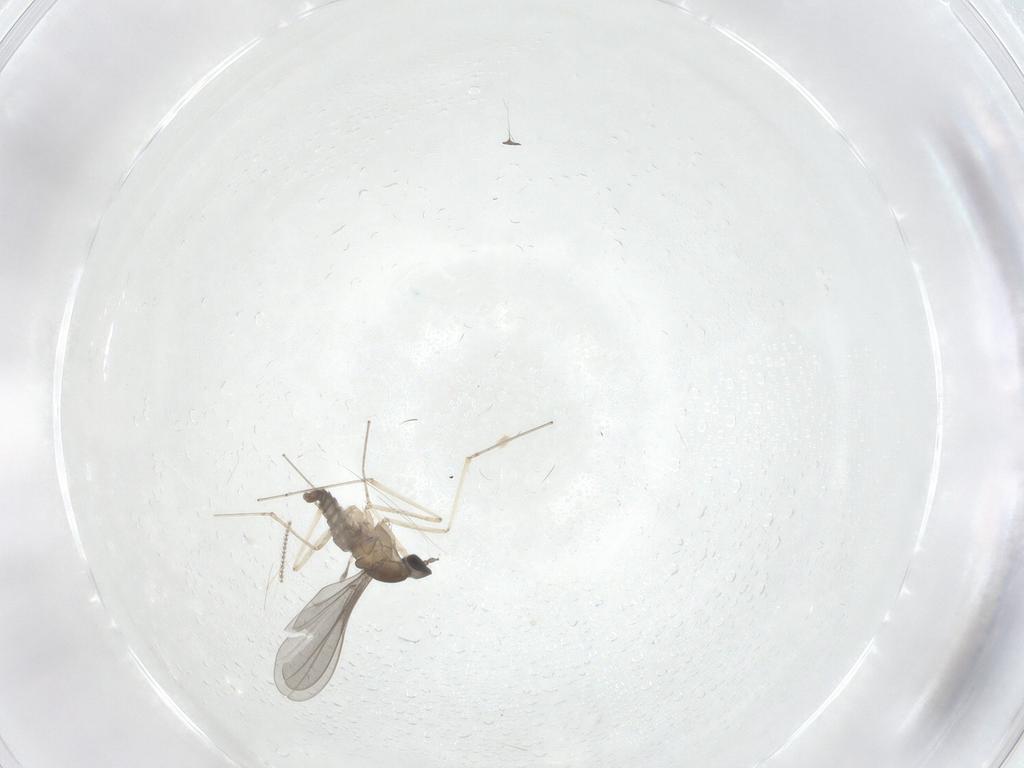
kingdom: Animalia
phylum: Arthropoda
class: Insecta
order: Diptera
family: Cecidomyiidae
